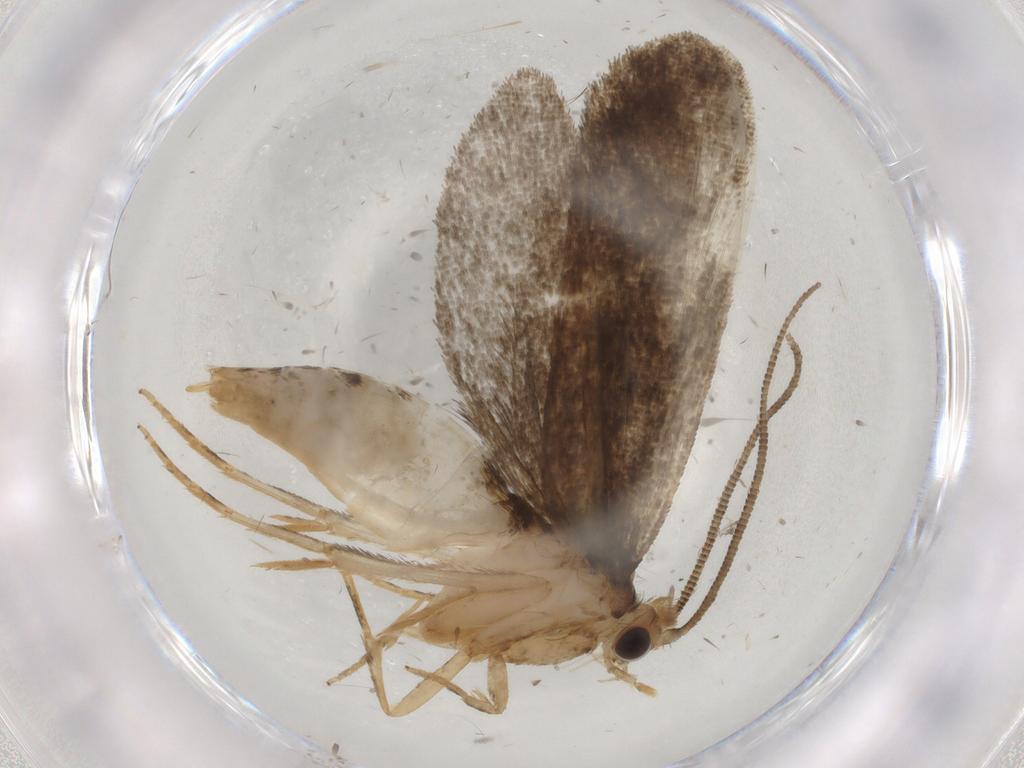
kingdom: Animalia
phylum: Arthropoda
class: Insecta
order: Lepidoptera
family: Tineidae
